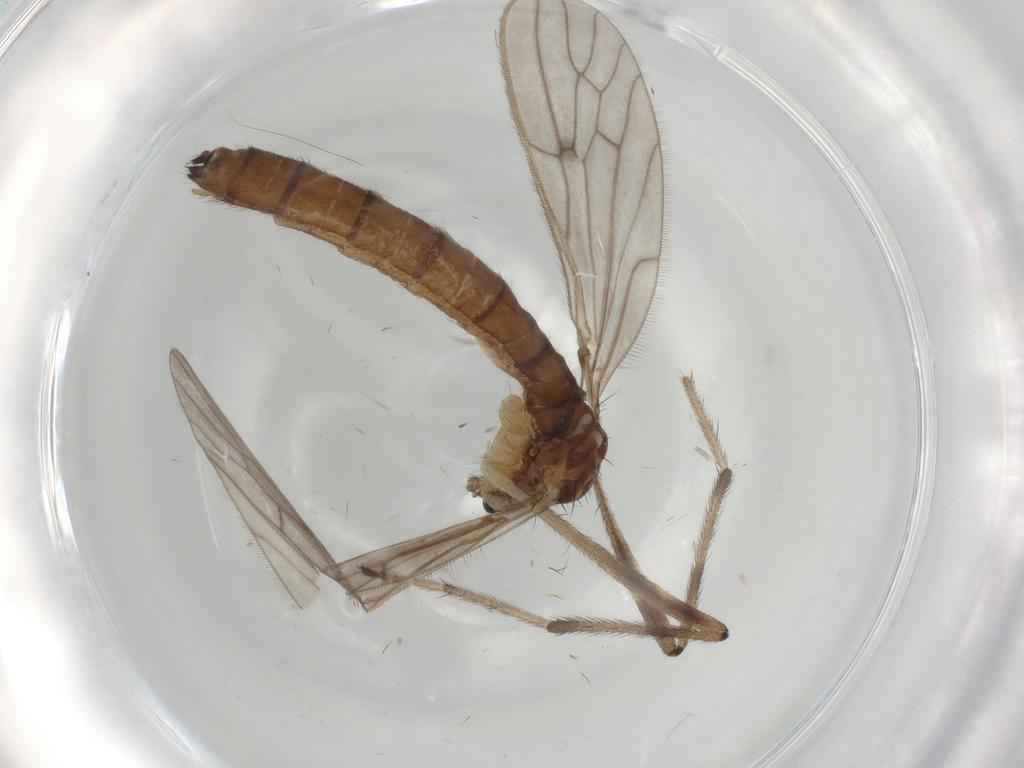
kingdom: Animalia
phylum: Arthropoda
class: Insecta
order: Diptera
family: Limoniidae
